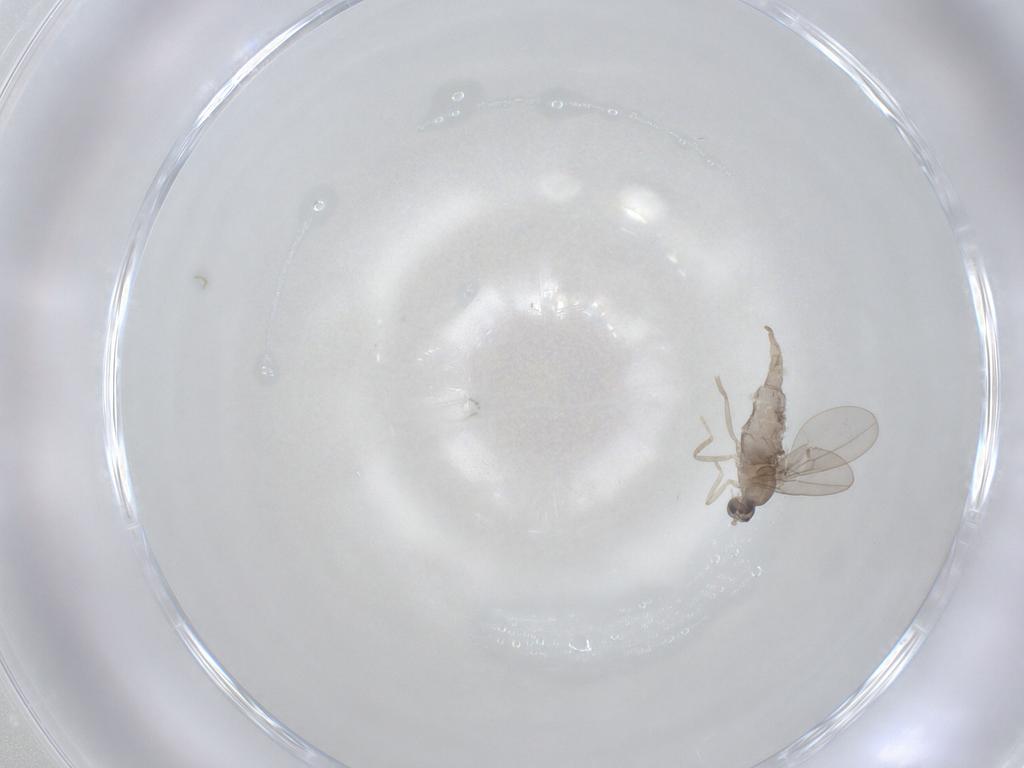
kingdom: Animalia
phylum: Arthropoda
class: Insecta
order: Diptera
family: Cecidomyiidae
